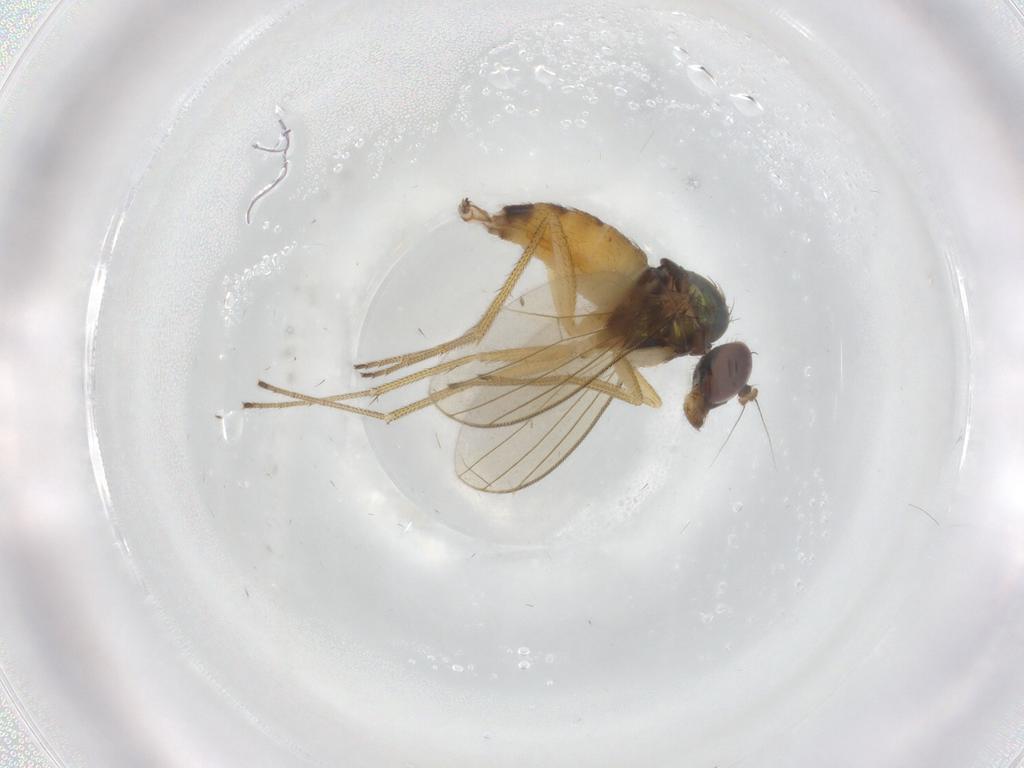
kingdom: Animalia
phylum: Arthropoda
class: Insecta
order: Diptera
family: Dolichopodidae
